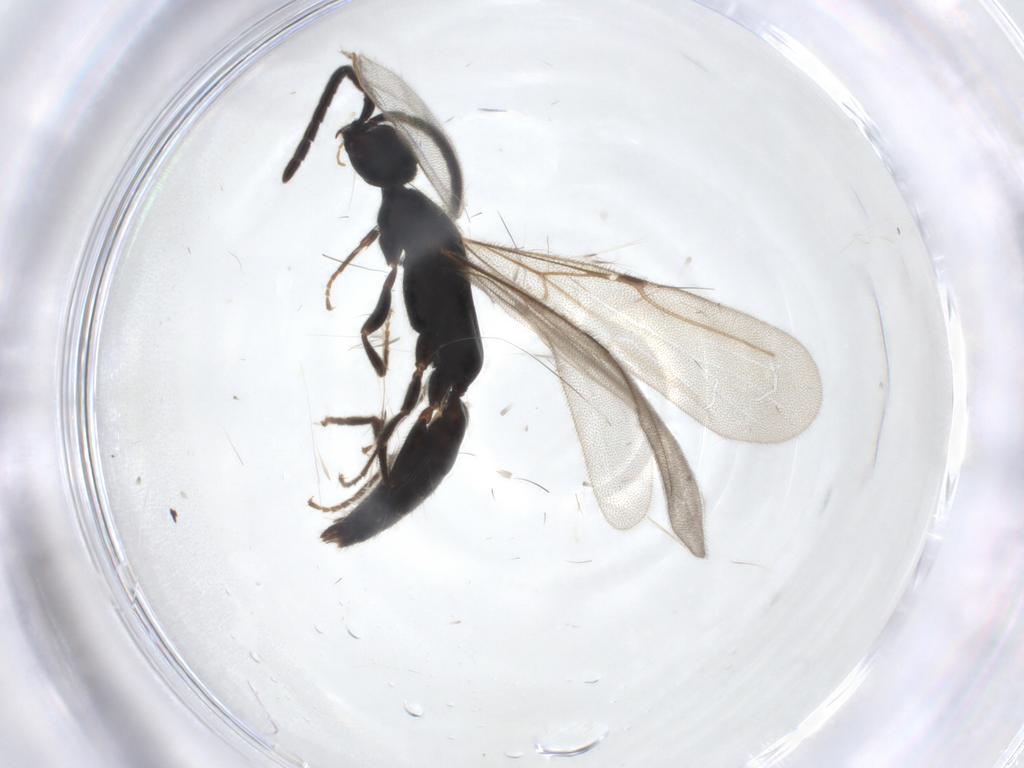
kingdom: Animalia
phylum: Arthropoda
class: Insecta
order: Hymenoptera
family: Bethylidae
